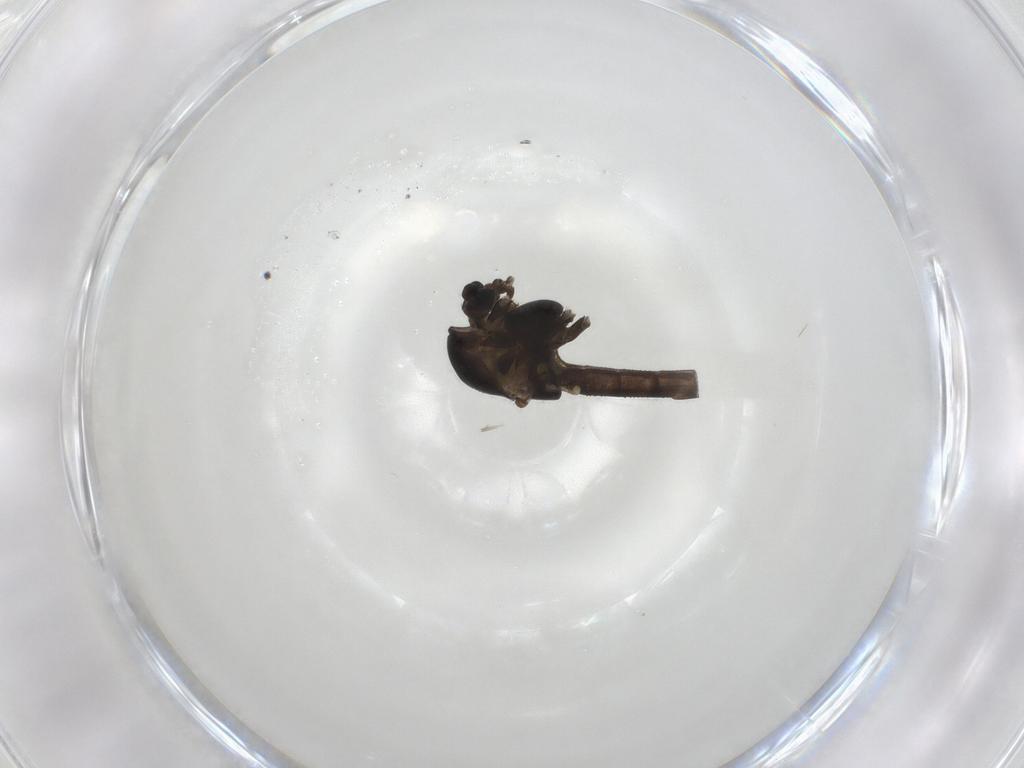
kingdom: Animalia
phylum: Arthropoda
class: Insecta
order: Diptera
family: Chironomidae
